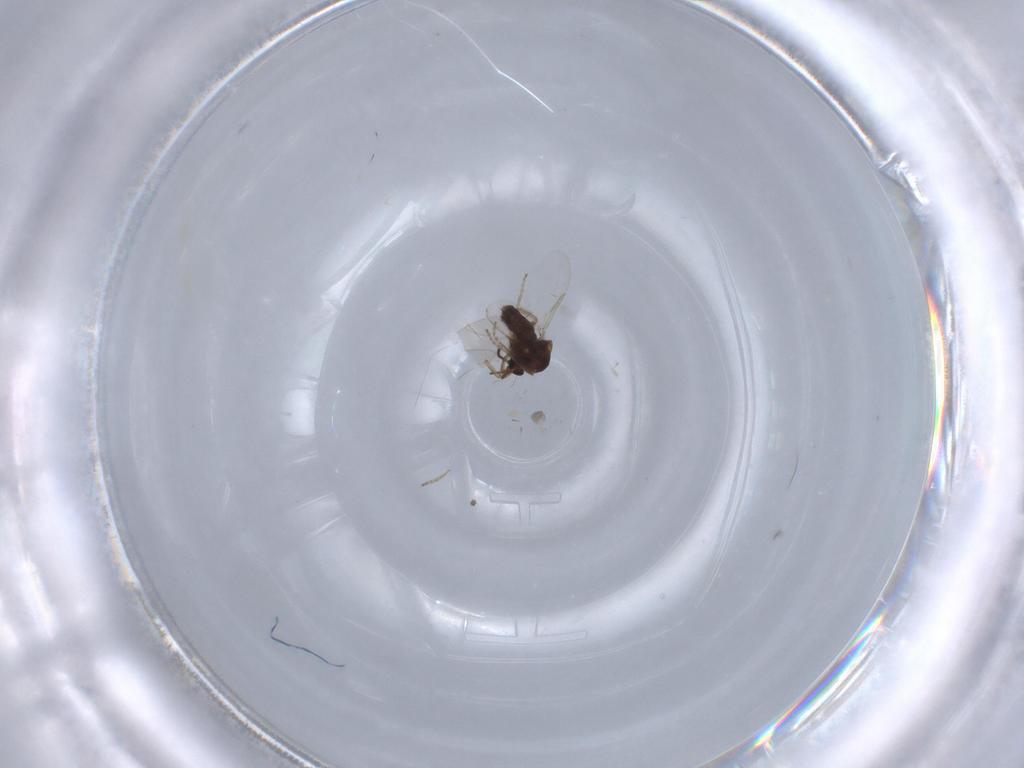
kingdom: Animalia
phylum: Arthropoda
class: Insecta
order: Diptera
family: Ceratopogonidae
